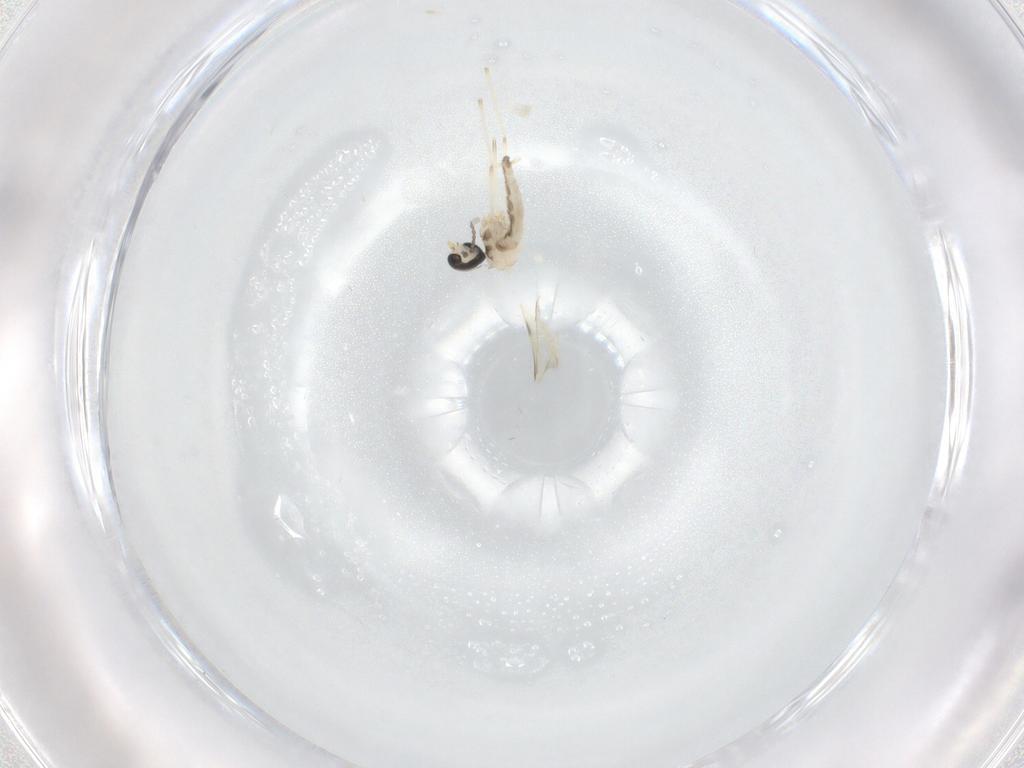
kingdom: Animalia
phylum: Arthropoda
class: Insecta
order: Diptera
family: Cecidomyiidae
